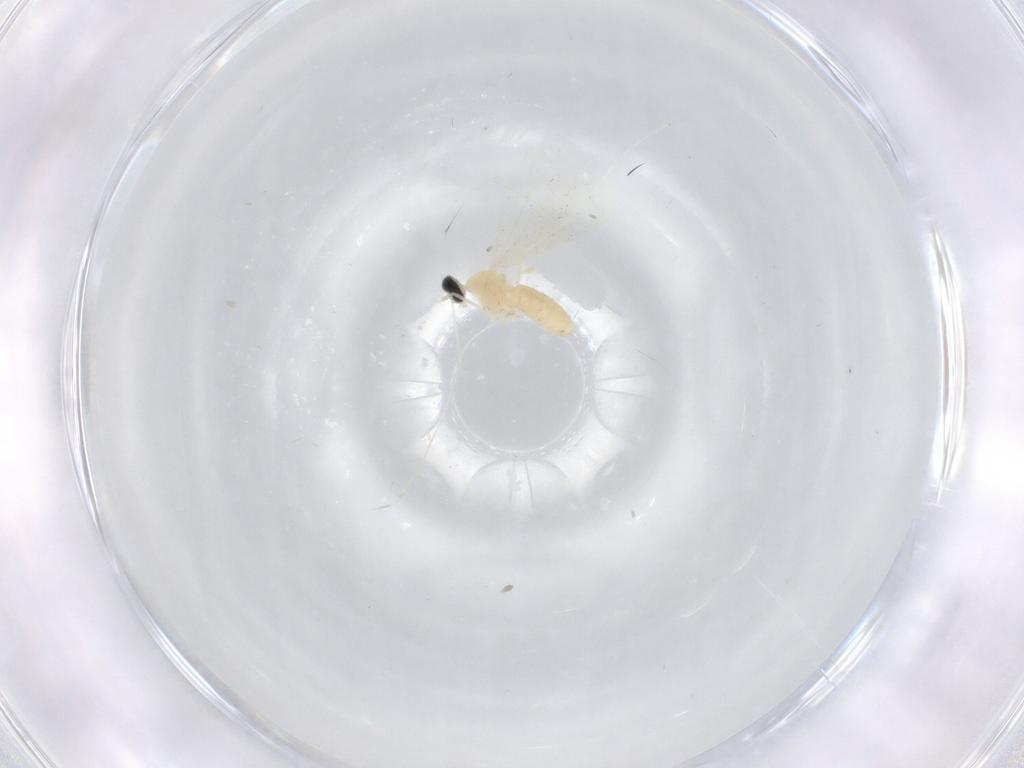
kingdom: Animalia
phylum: Arthropoda
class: Insecta
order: Diptera
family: Cecidomyiidae
